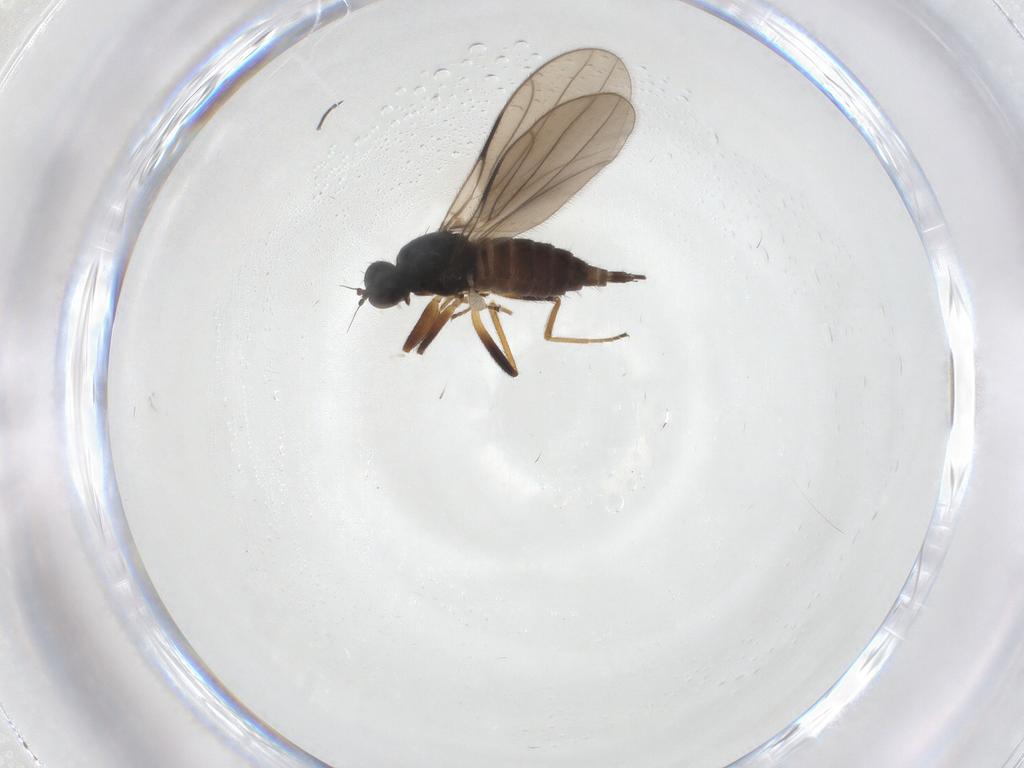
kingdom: Animalia
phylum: Arthropoda
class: Insecta
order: Diptera
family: Hybotidae
